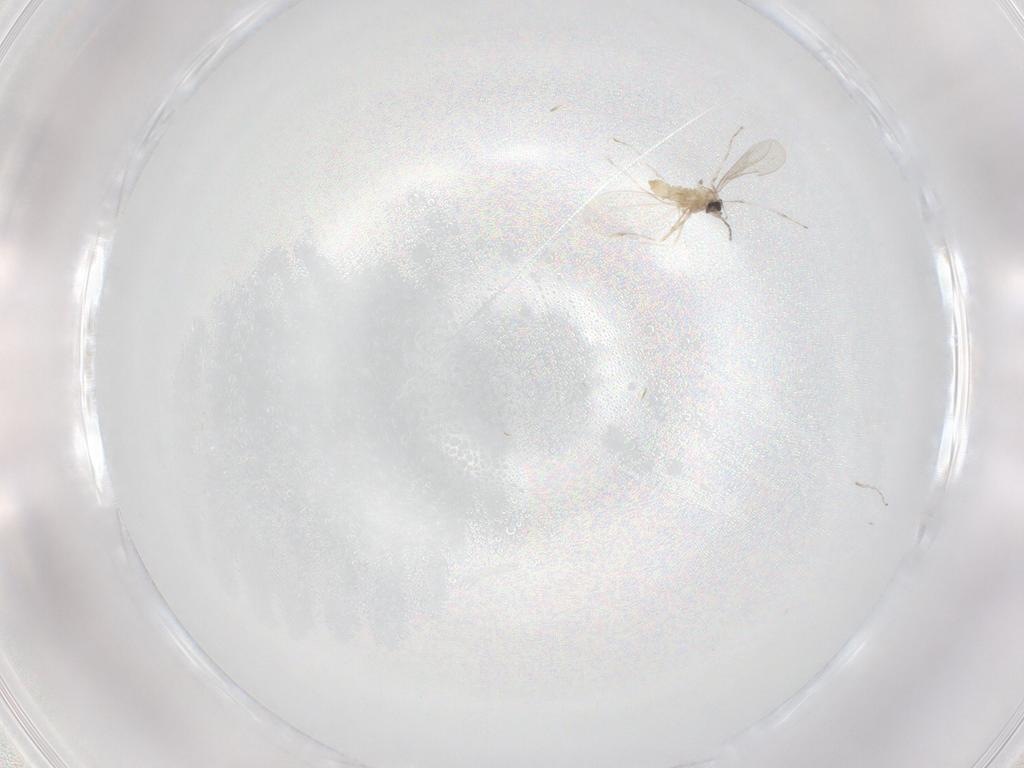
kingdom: Animalia
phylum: Arthropoda
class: Insecta
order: Diptera
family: Cecidomyiidae
